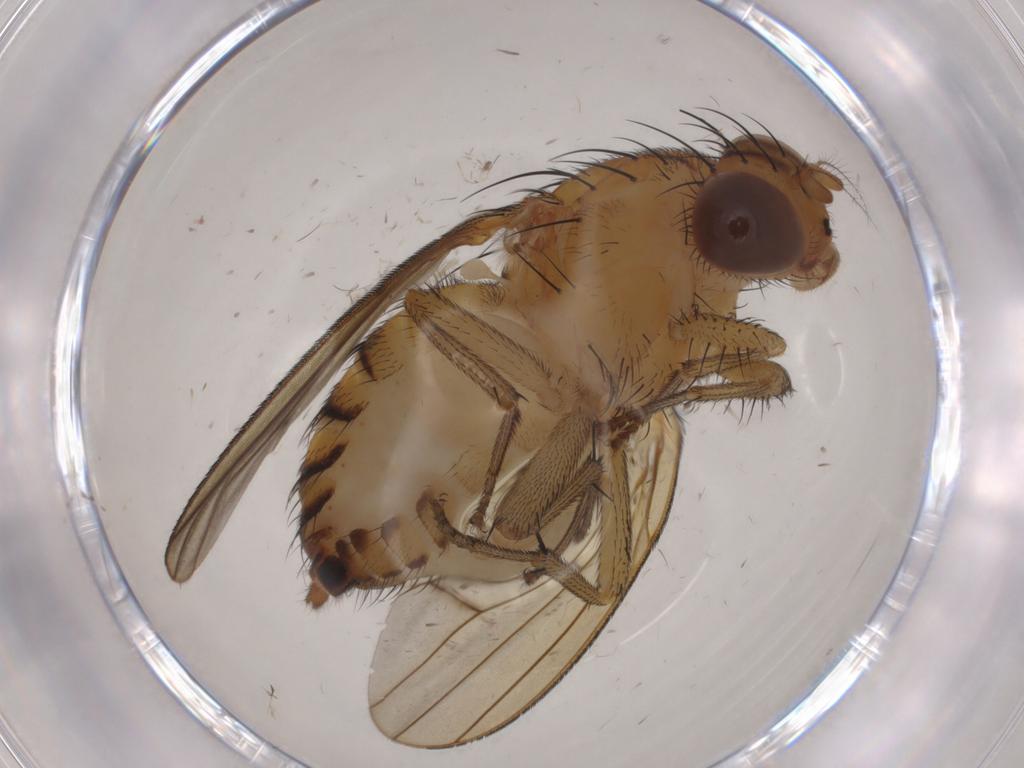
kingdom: Animalia
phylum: Arthropoda
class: Insecta
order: Diptera
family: Psychodidae
